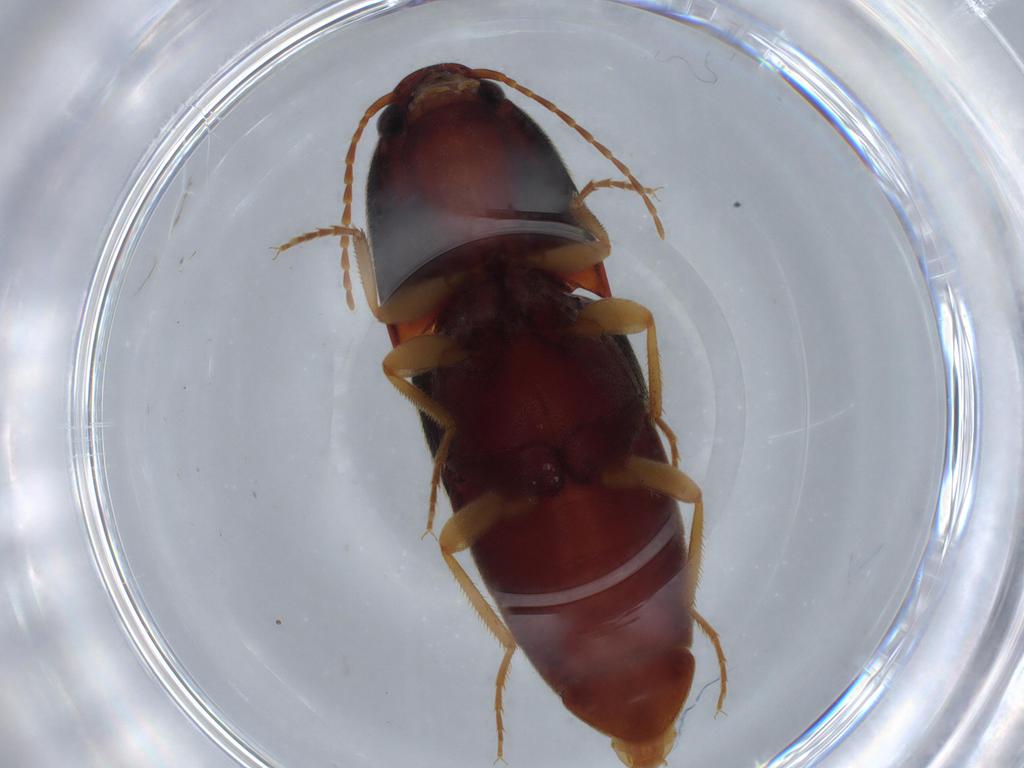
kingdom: Animalia
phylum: Arthropoda
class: Insecta
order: Coleoptera
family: Elateridae
